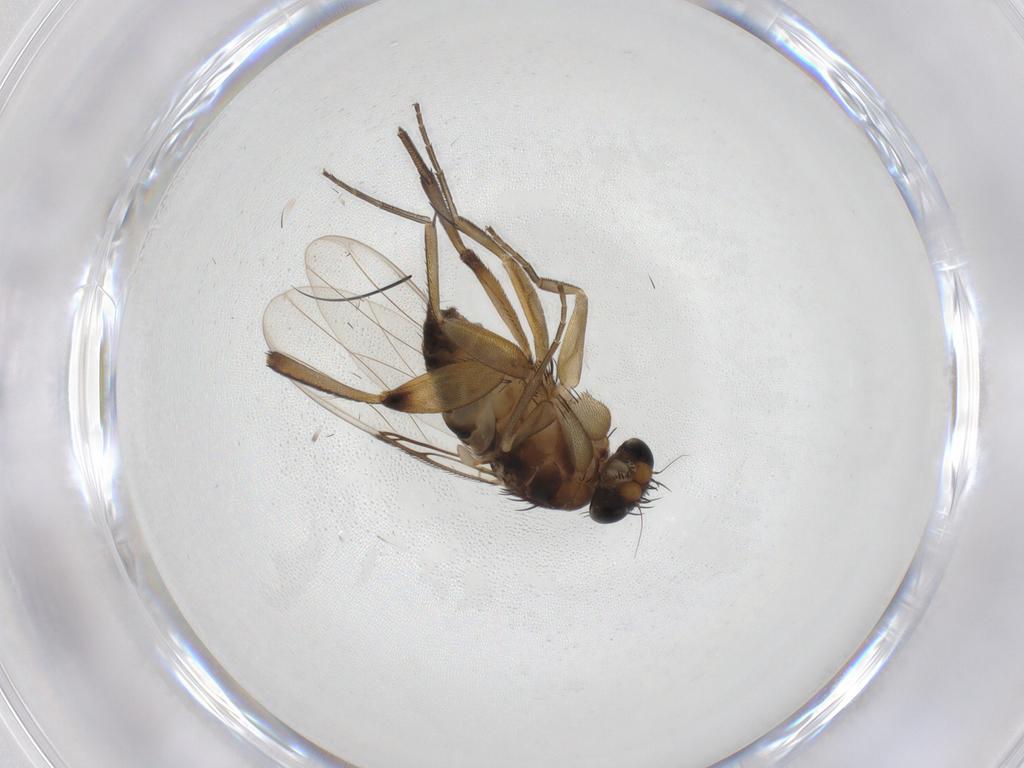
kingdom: Animalia
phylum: Arthropoda
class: Insecta
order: Diptera
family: Phoridae
